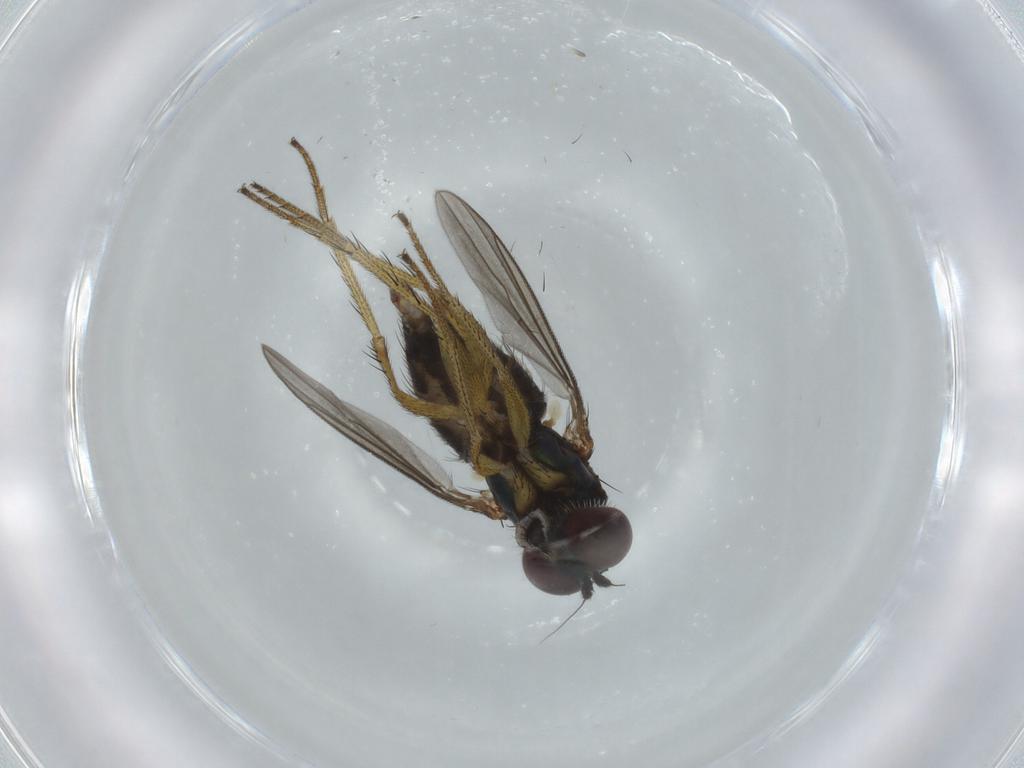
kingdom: Animalia
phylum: Arthropoda
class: Insecta
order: Diptera
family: Dolichopodidae
